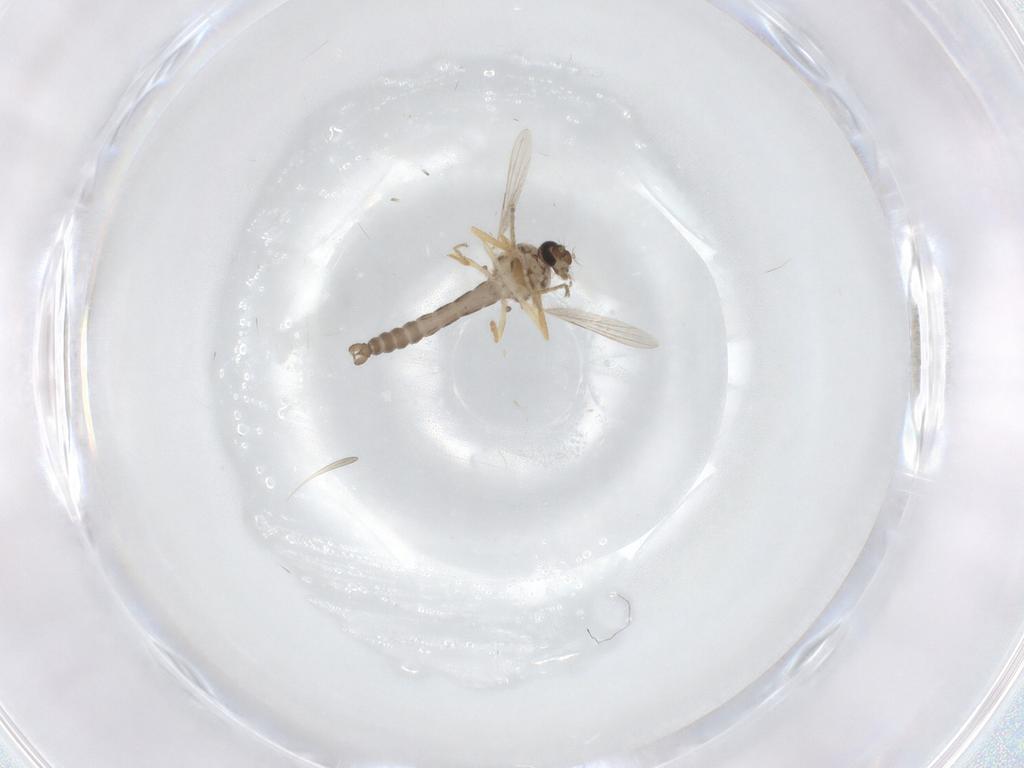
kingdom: Animalia
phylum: Arthropoda
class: Insecta
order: Diptera
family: Ceratopogonidae
